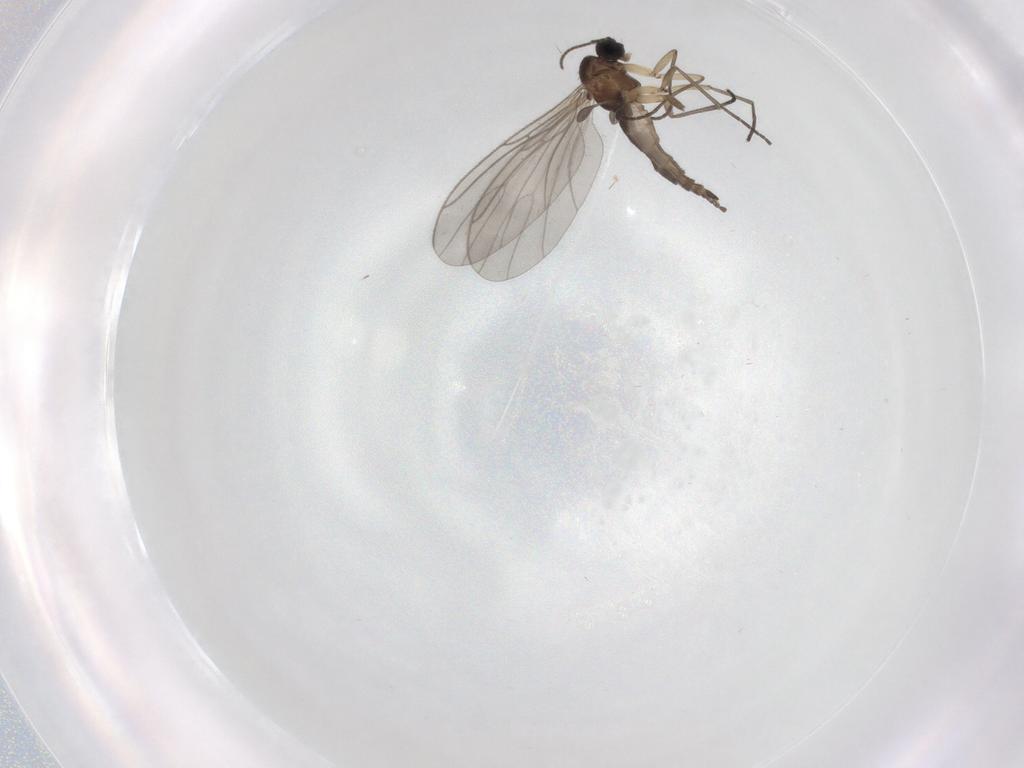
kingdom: Animalia
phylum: Arthropoda
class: Insecta
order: Diptera
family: Sciaridae
